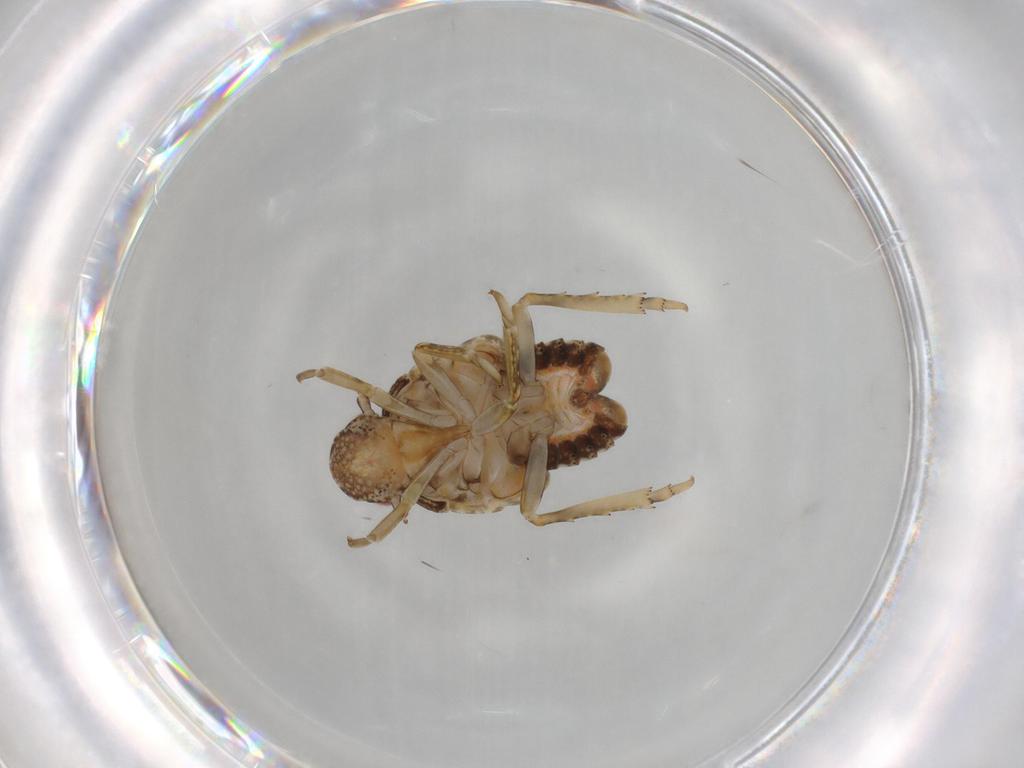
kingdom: Animalia
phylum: Arthropoda
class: Insecta
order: Hemiptera
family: Flatidae
